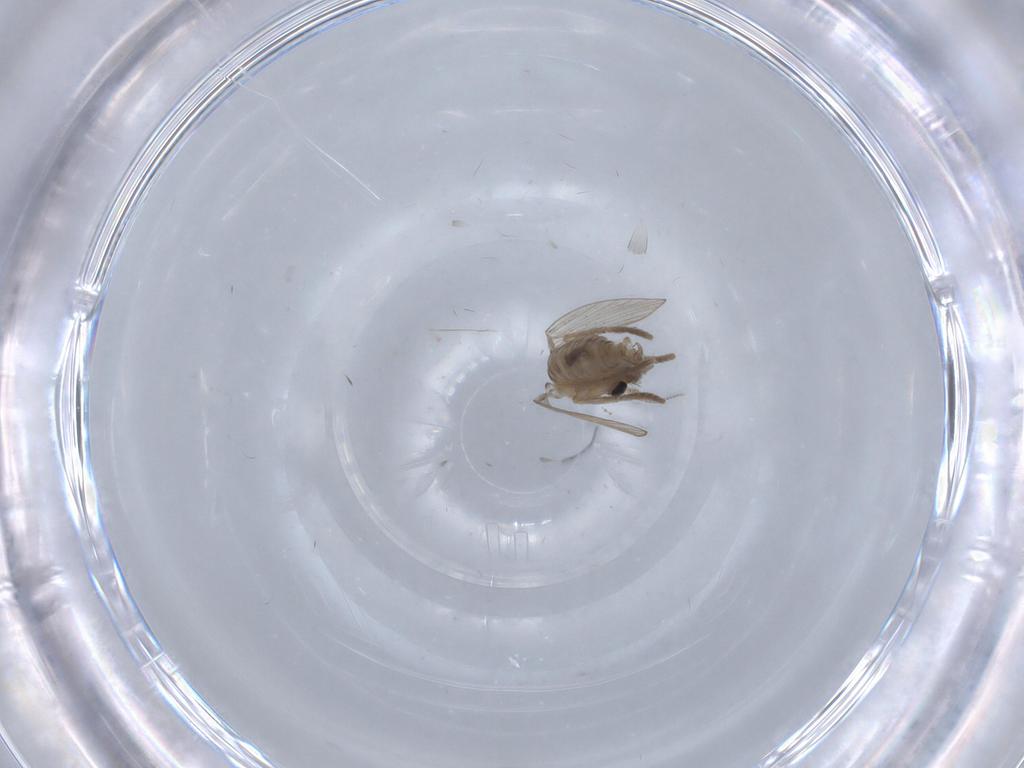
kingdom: Animalia
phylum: Arthropoda
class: Insecta
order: Diptera
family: Psychodidae
